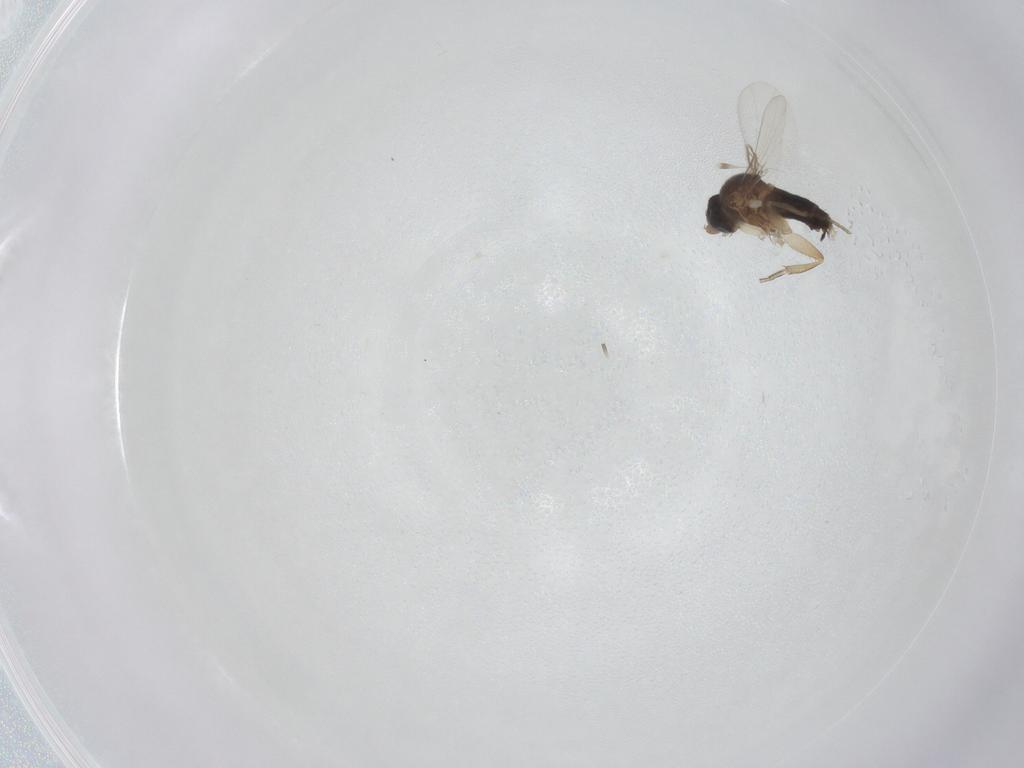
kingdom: Animalia
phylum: Arthropoda
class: Insecta
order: Diptera
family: Phoridae
